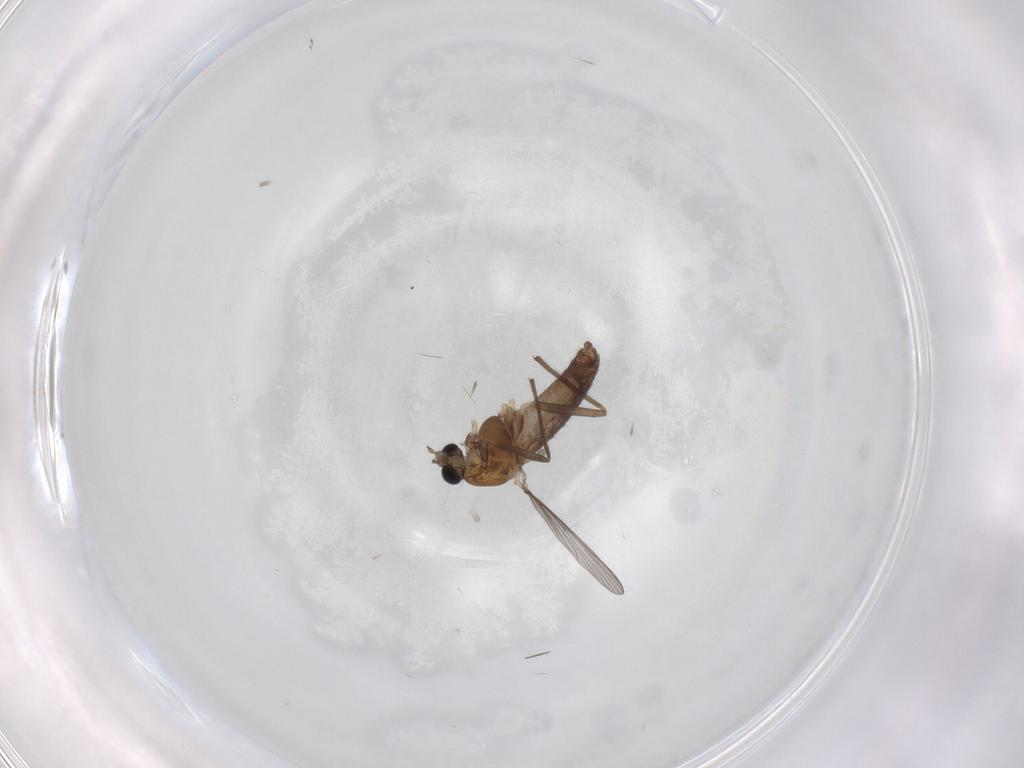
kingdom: Animalia
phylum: Arthropoda
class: Insecta
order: Diptera
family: Chironomidae
